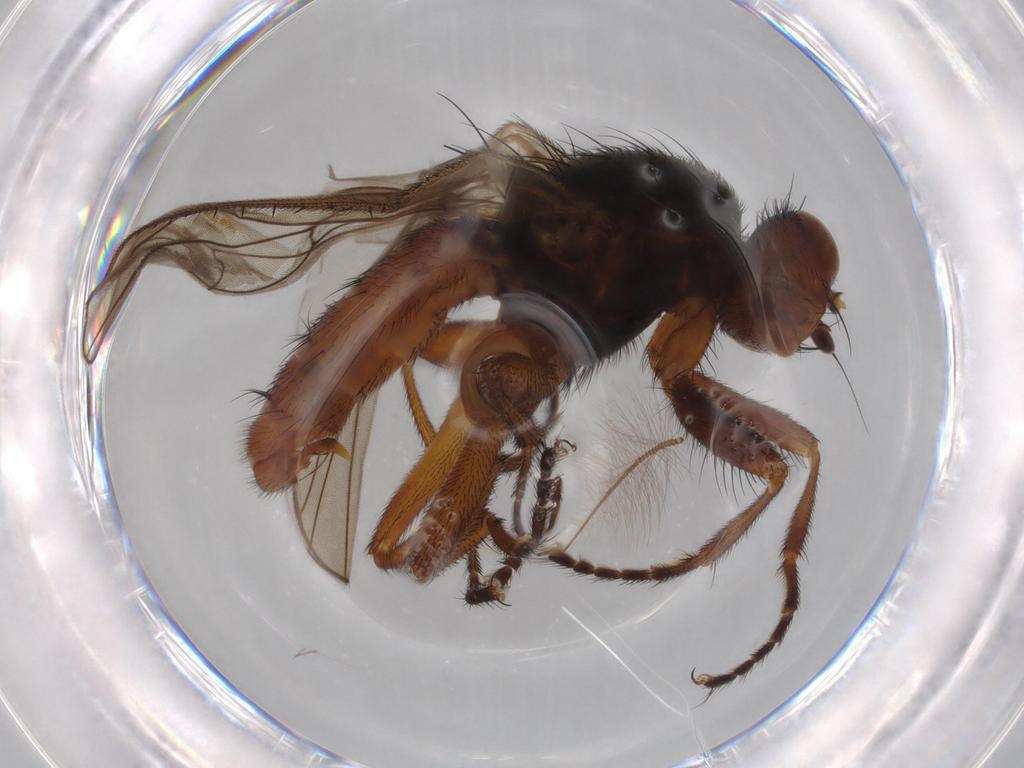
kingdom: Animalia
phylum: Arthropoda
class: Insecta
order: Diptera
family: Heleomyzidae
